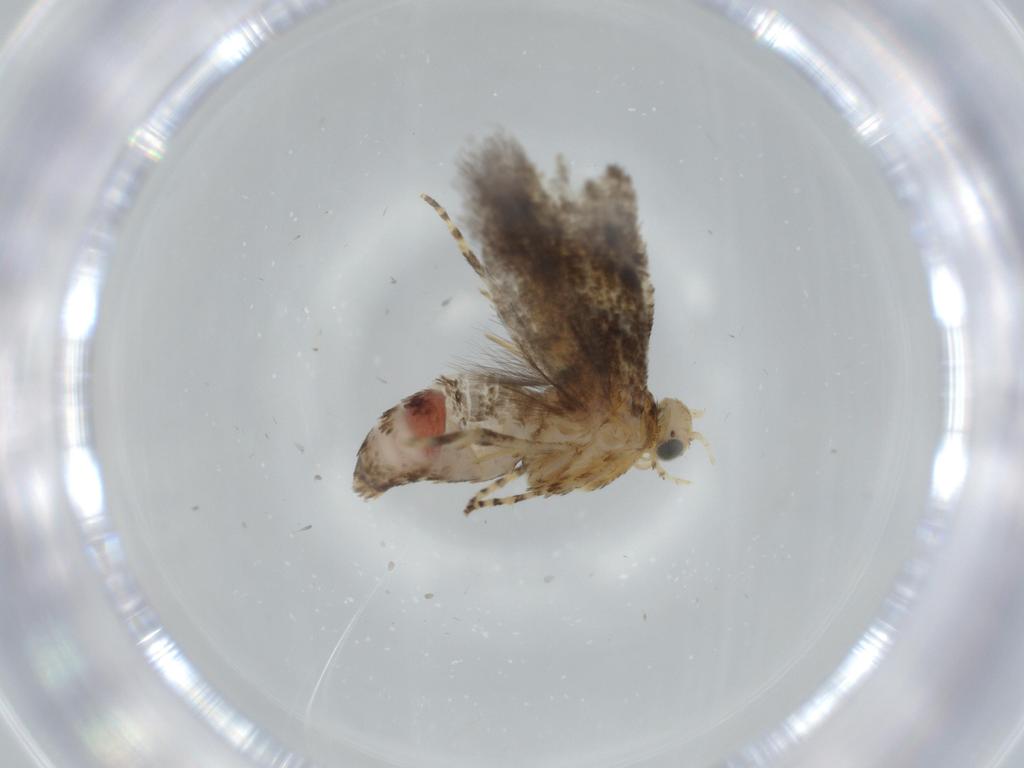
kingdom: Animalia
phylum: Arthropoda
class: Insecta
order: Lepidoptera
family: Glyphipterigidae
